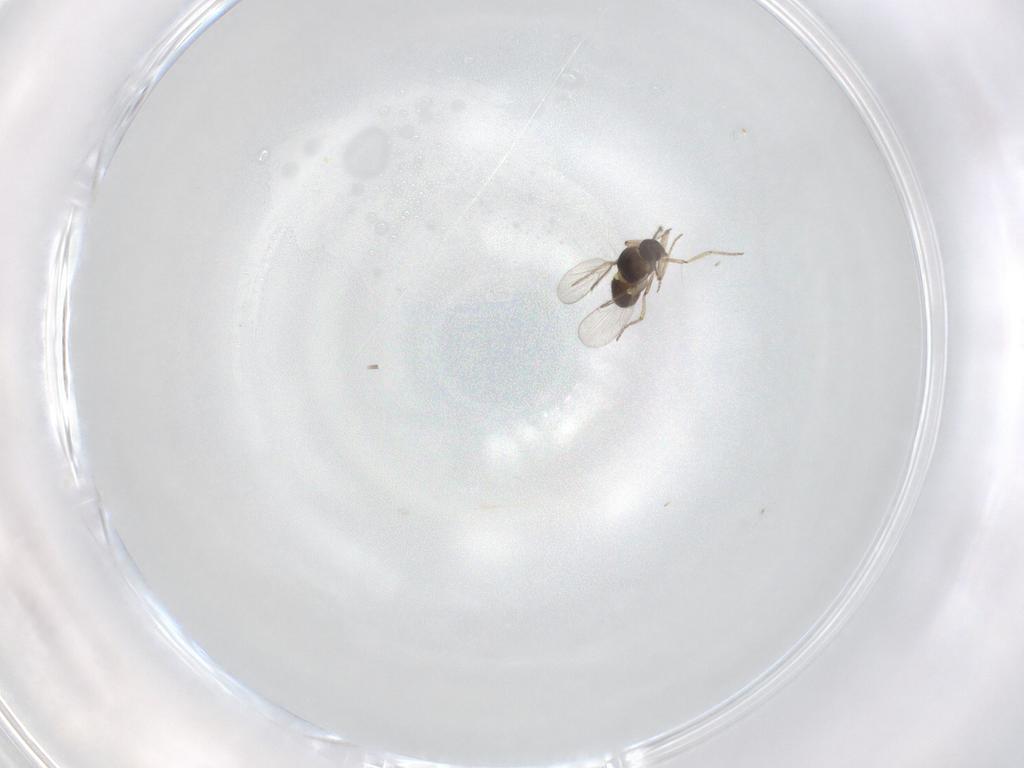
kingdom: Animalia
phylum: Arthropoda
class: Insecta
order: Diptera
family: Ceratopogonidae
